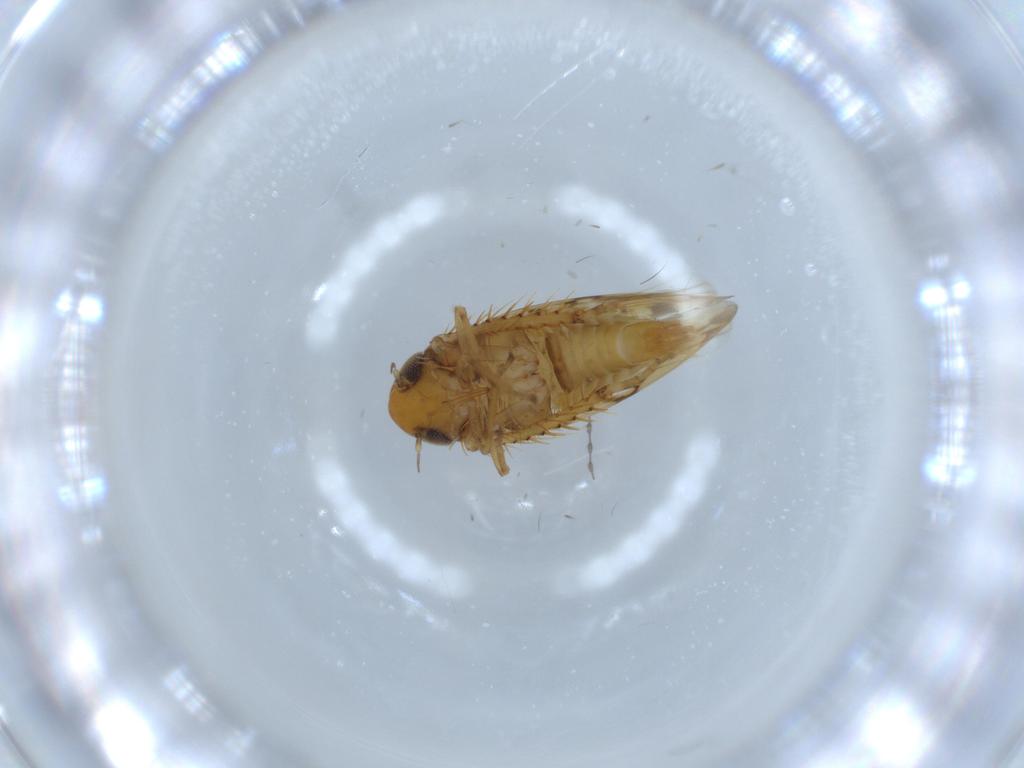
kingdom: Animalia
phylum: Arthropoda
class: Insecta
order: Hemiptera
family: Cicadellidae
